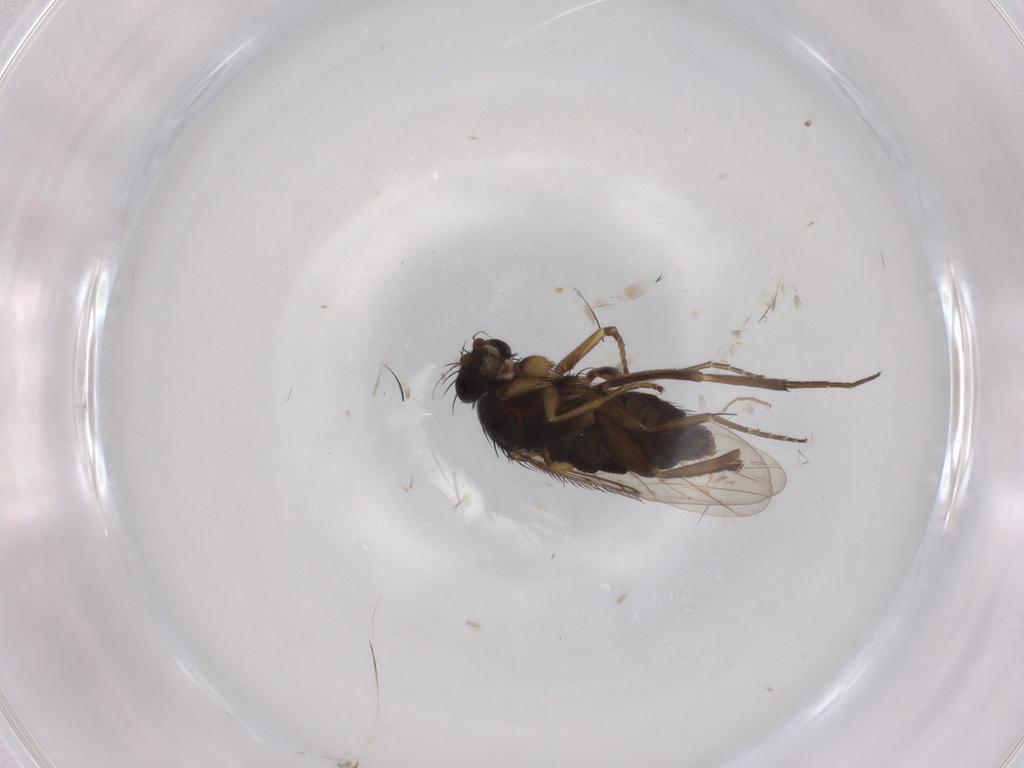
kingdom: Animalia
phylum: Arthropoda
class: Insecta
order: Diptera
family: Phoridae
